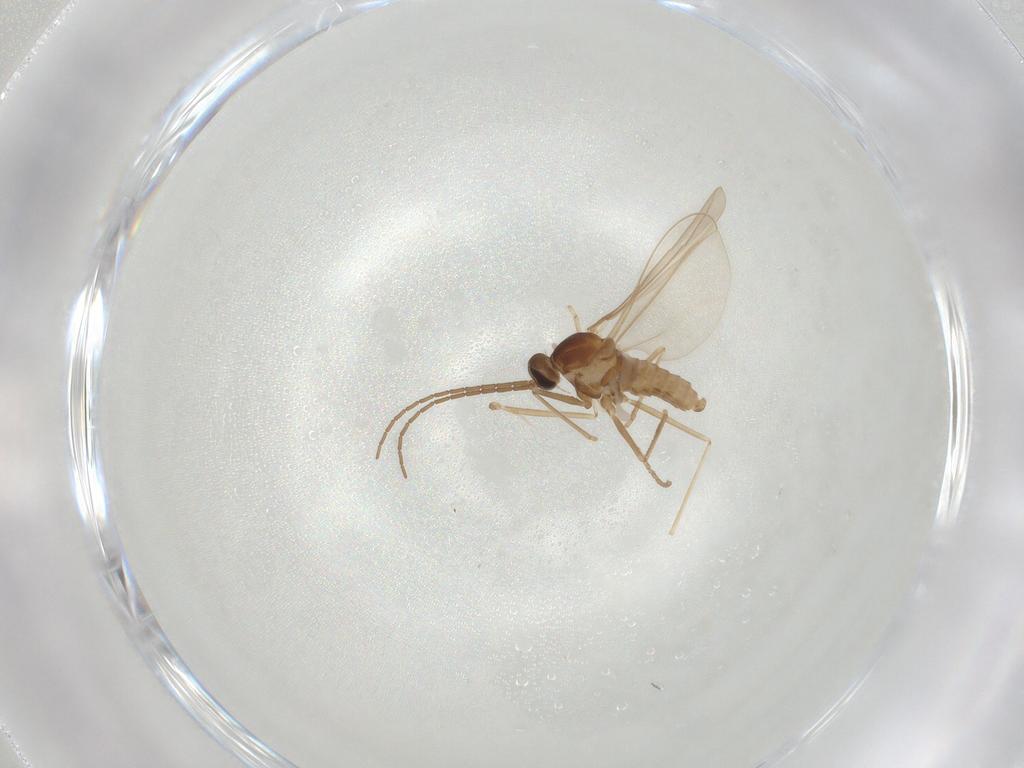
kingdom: Animalia
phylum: Arthropoda
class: Insecta
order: Diptera
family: Cecidomyiidae
